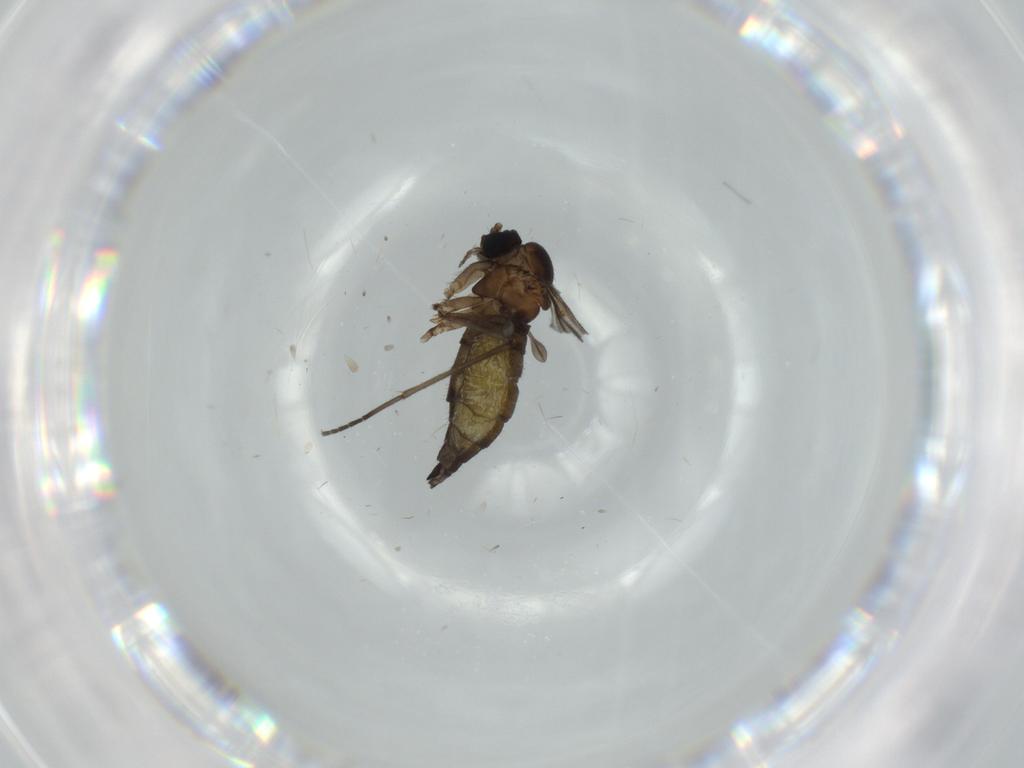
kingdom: Animalia
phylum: Arthropoda
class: Insecta
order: Diptera
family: Sciaridae
